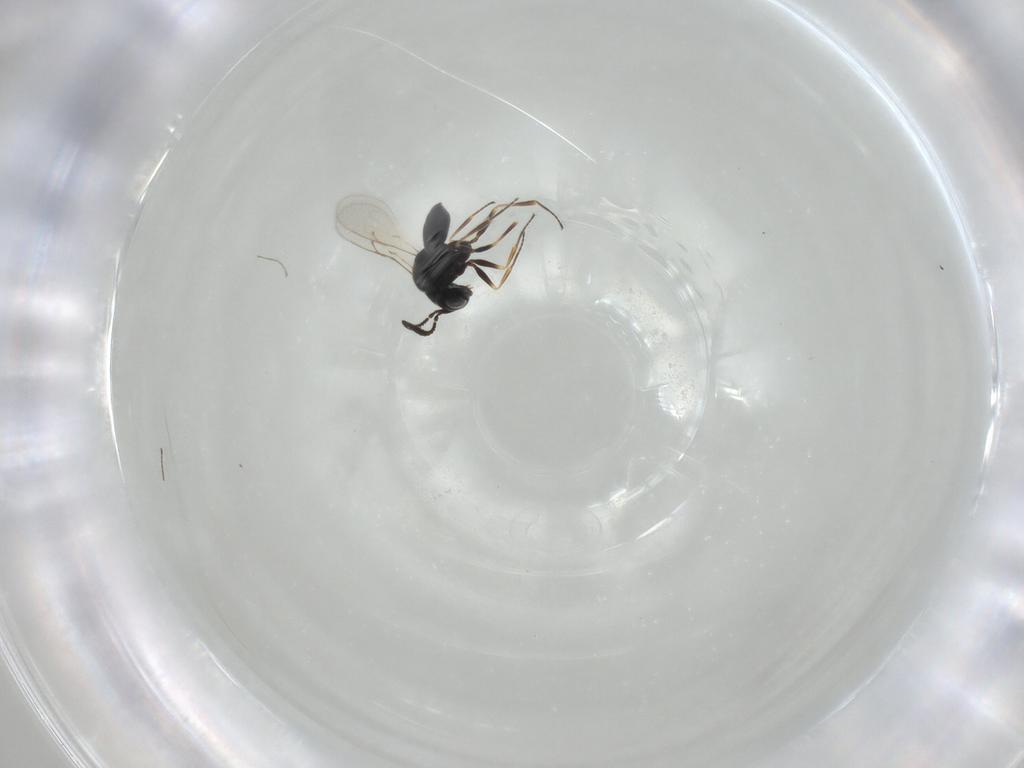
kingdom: Animalia
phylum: Arthropoda
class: Insecta
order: Hymenoptera
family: Scelionidae
